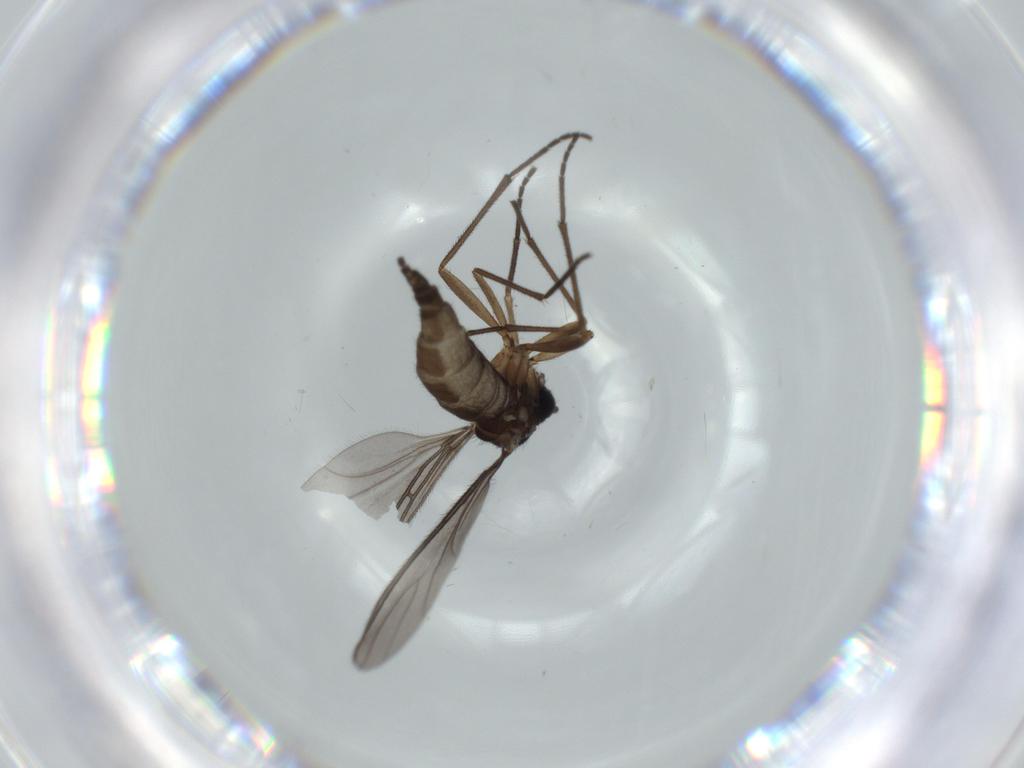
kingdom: Animalia
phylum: Arthropoda
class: Insecta
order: Diptera
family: Sciaridae
